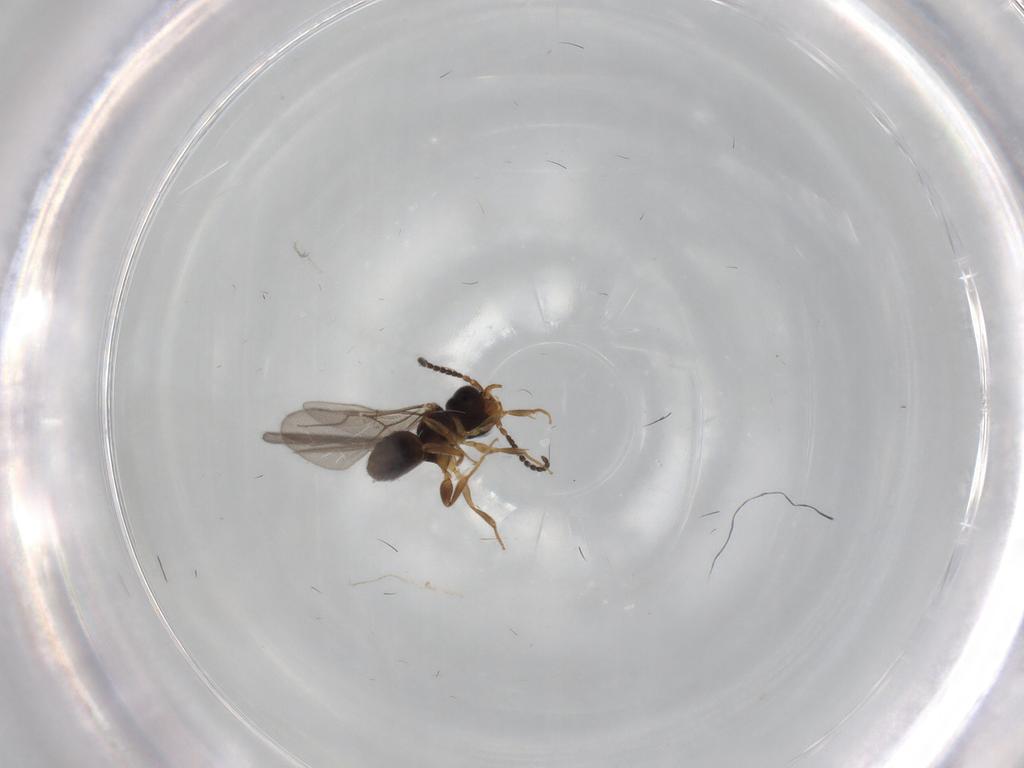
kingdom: Animalia
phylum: Arthropoda
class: Insecta
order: Hymenoptera
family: Bethylidae
